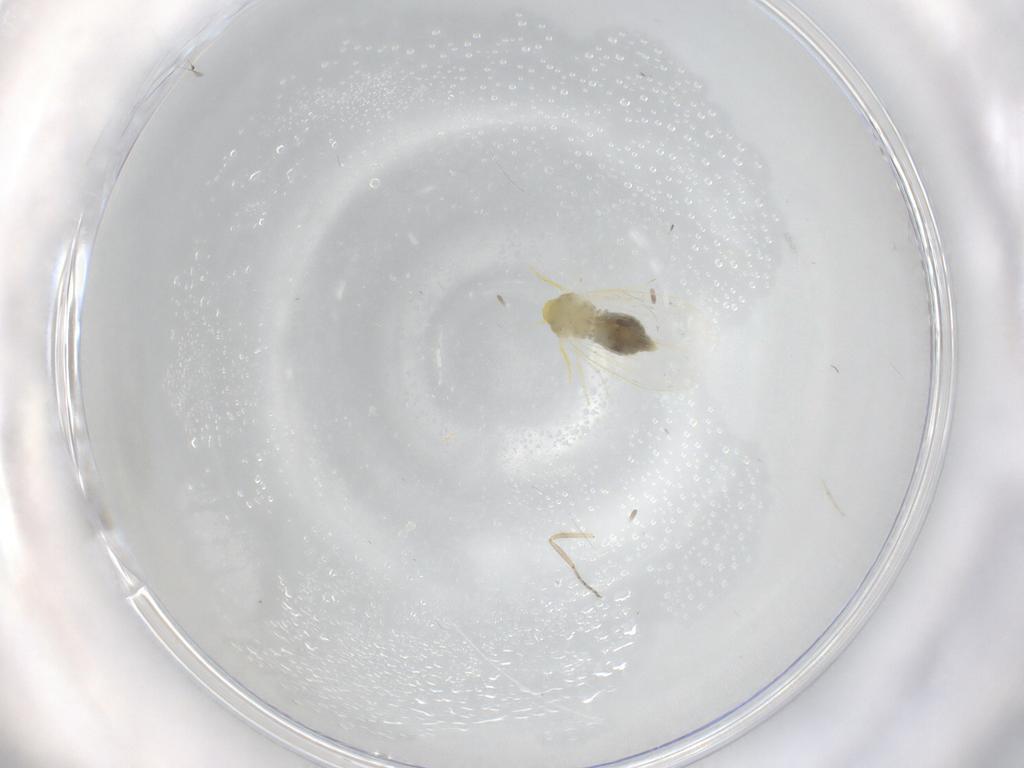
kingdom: Animalia
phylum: Arthropoda
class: Insecta
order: Hemiptera
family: Aleyrodidae
